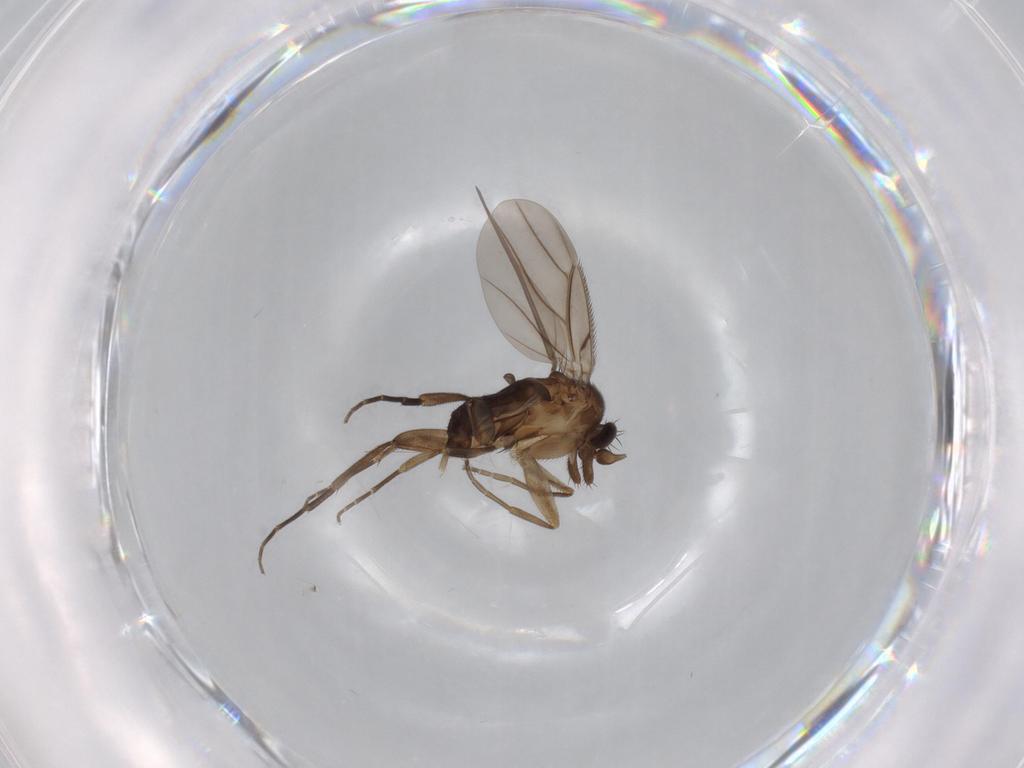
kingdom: Animalia
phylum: Arthropoda
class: Insecta
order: Diptera
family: Phoridae
